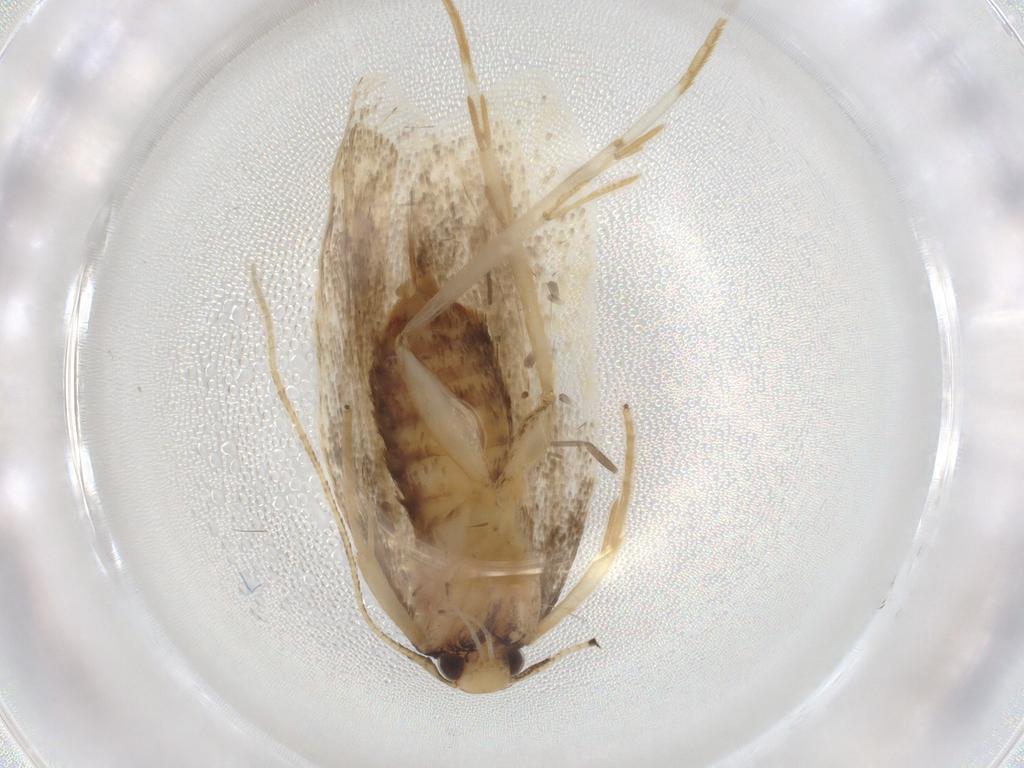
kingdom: Animalia
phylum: Arthropoda
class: Insecta
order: Lepidoptera
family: Lecithoceridae
